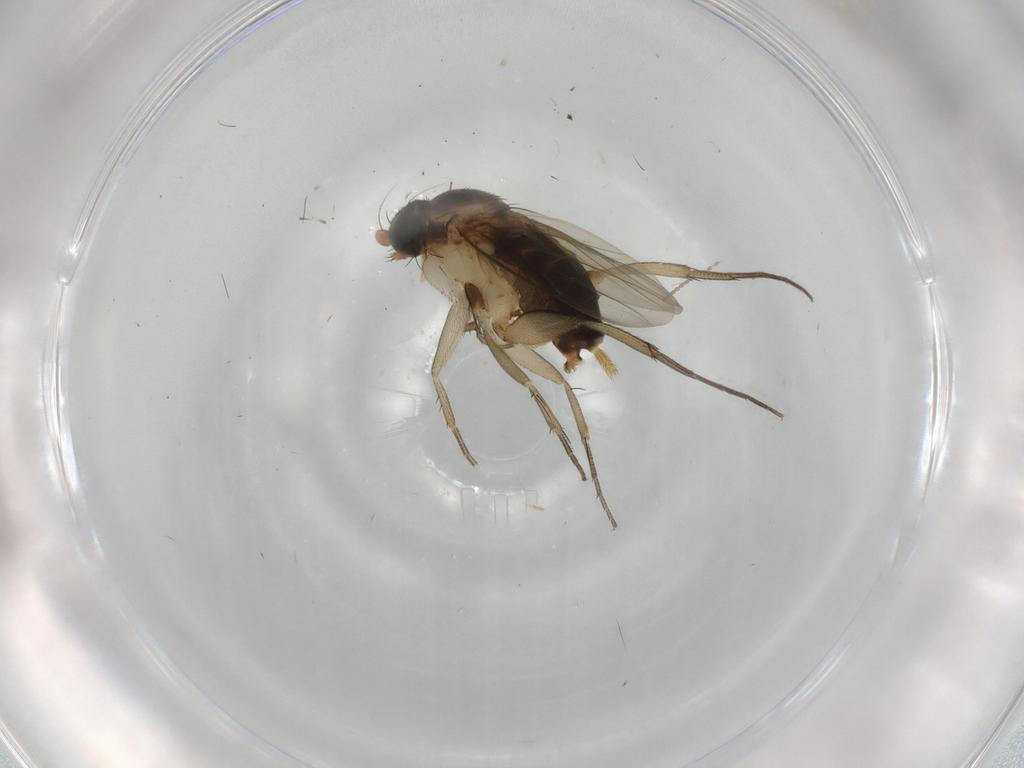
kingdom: Animalia
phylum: Arthropoda
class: Insecta
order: Diptera
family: Phoridae
